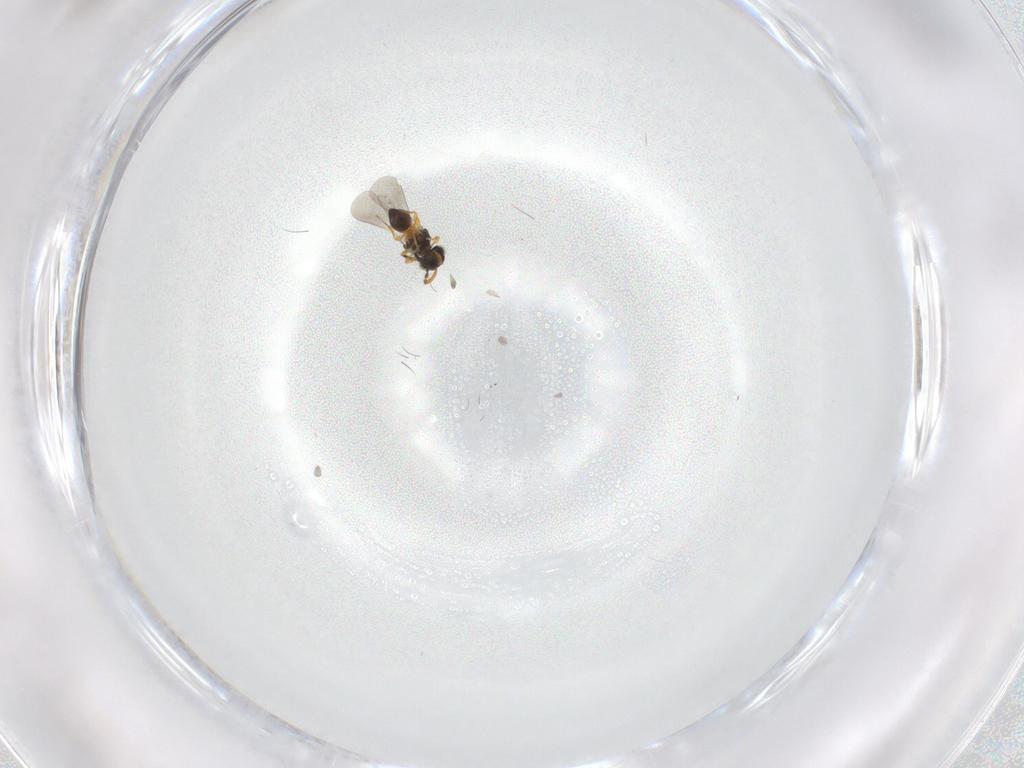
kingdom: Animalia
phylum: Arthropoda
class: Insecta
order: Hymenoptera
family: Platygastridae
